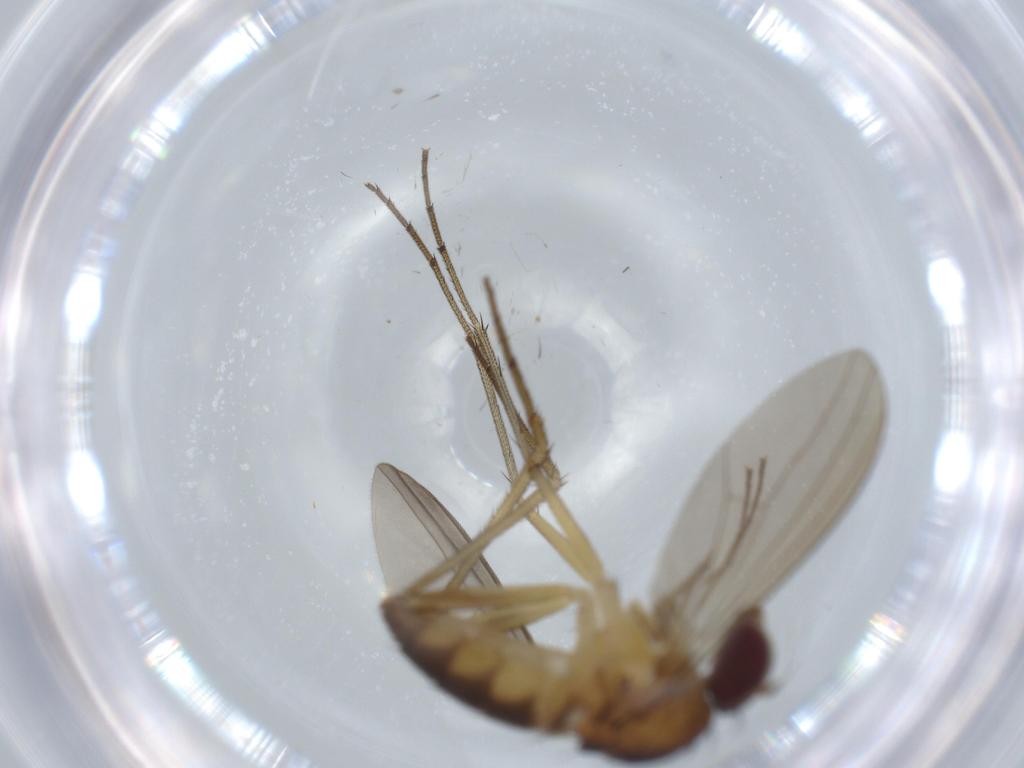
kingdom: Animalia
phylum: Arthropoda
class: Insecta
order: Diptera
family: Dolichopodidae
